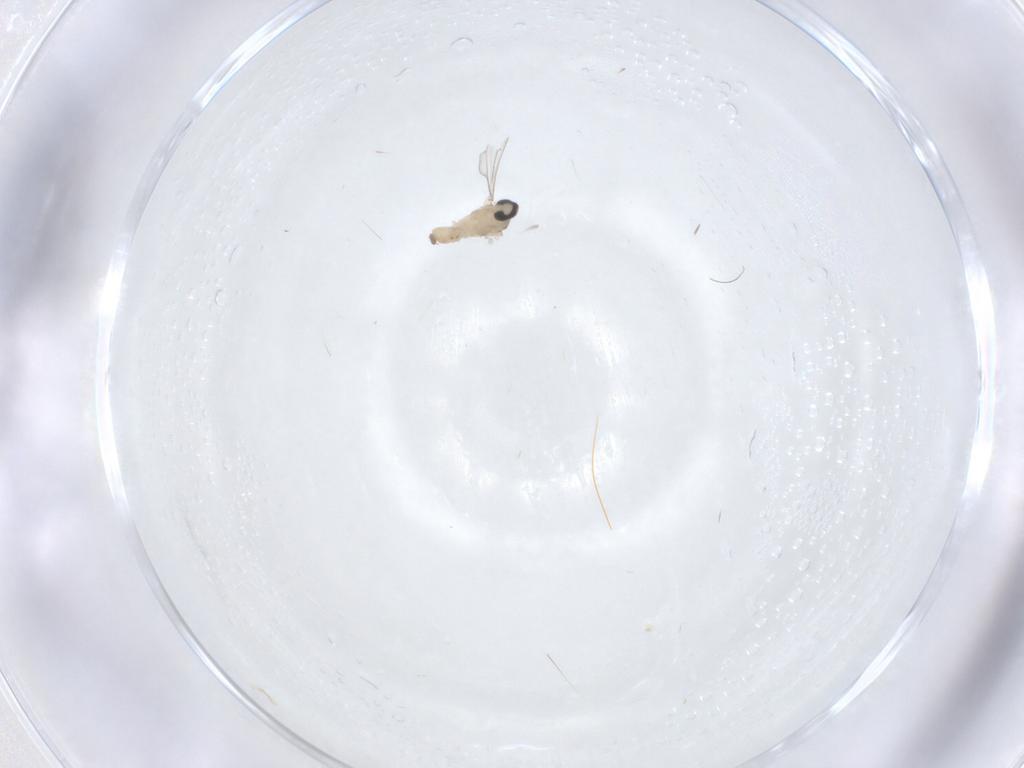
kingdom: Animalia
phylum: Arthropoda
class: Insecta
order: Diptera
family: Cecidomyiidae
